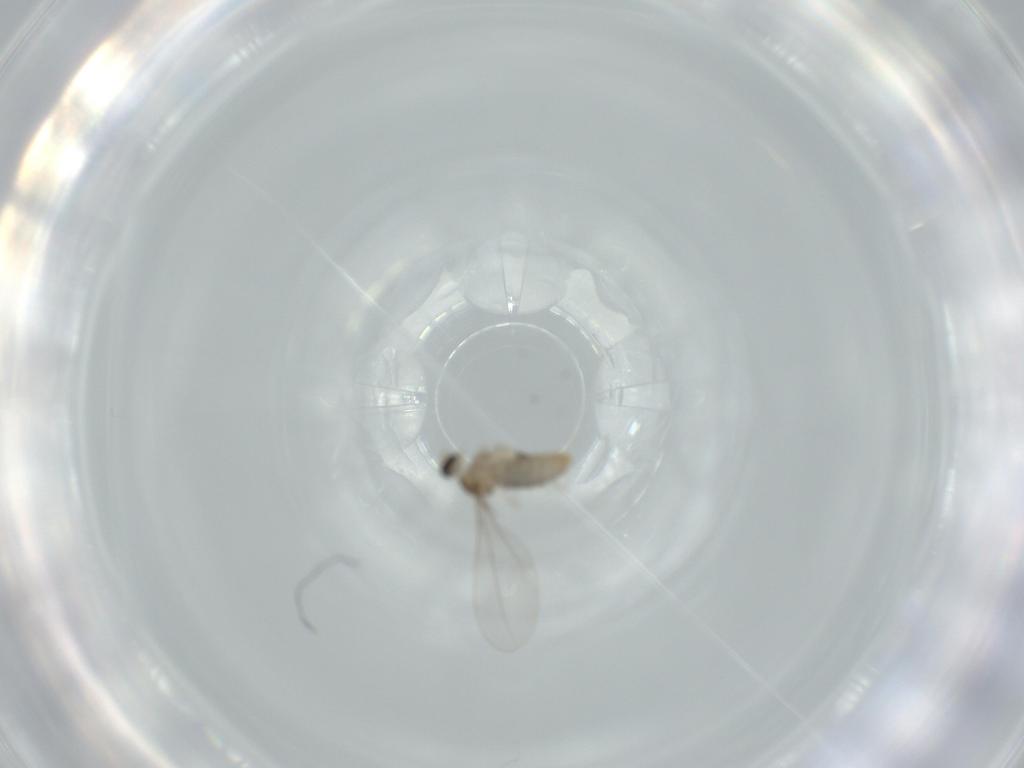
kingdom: Animalia
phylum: Arthropoda
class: Insecta
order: Diptera
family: Cecidomyiidae
